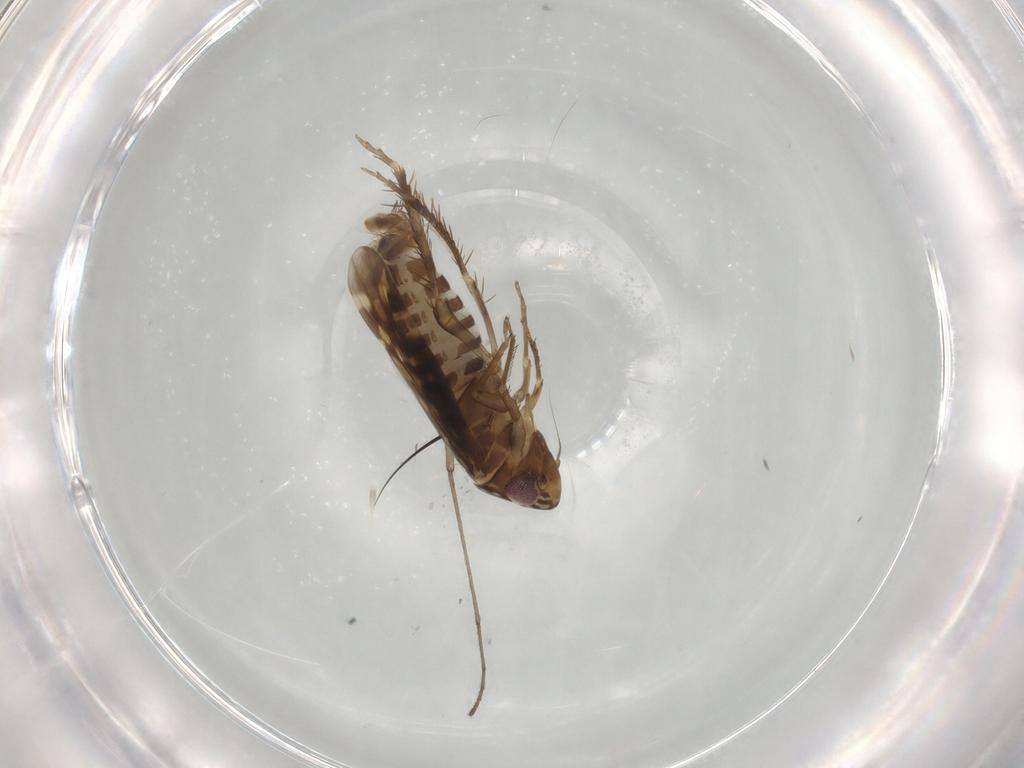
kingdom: Animalia
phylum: Arthropoda
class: Insecta
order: Hemiptera
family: Cicadellidae
